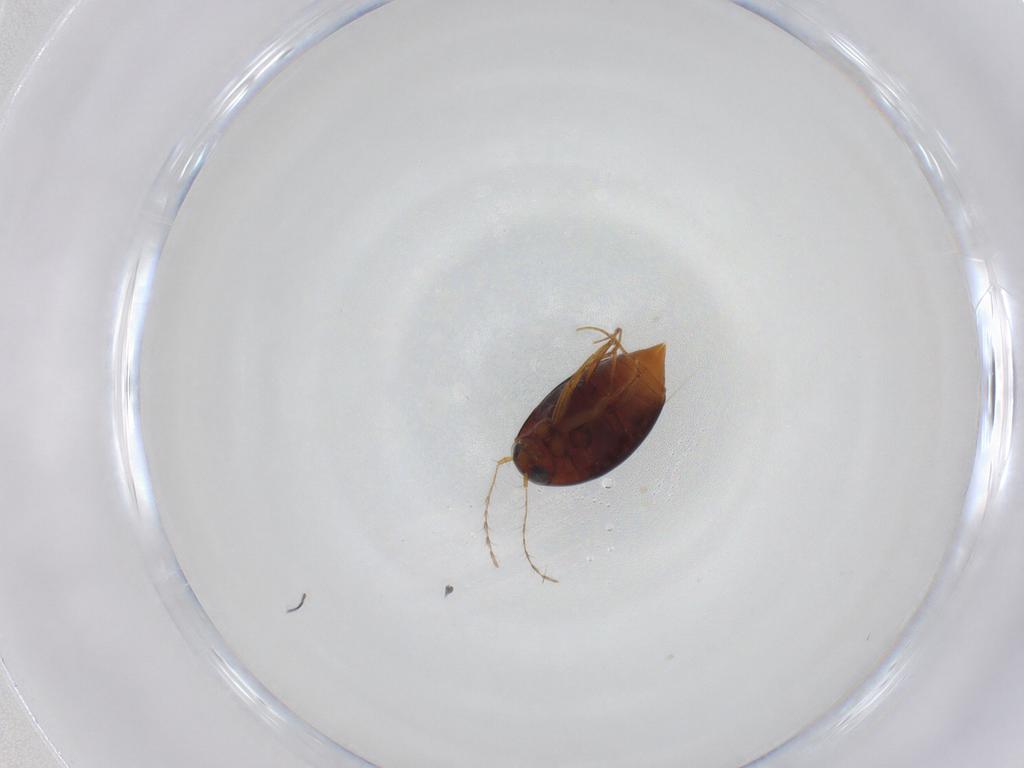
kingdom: Animalia
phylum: Arthropoda
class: Insecta
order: Coleoptera
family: Staphylinidae
